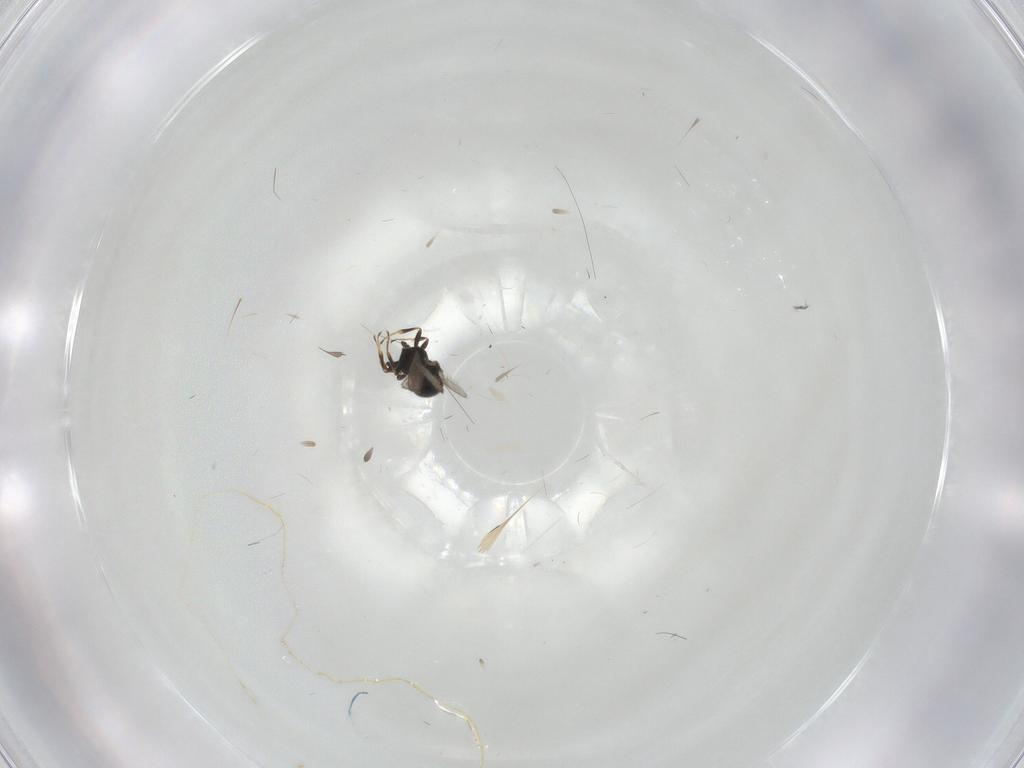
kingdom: Animalia
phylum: Arthropoda
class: Insecta
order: Hymenoptera
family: Scelionidae
